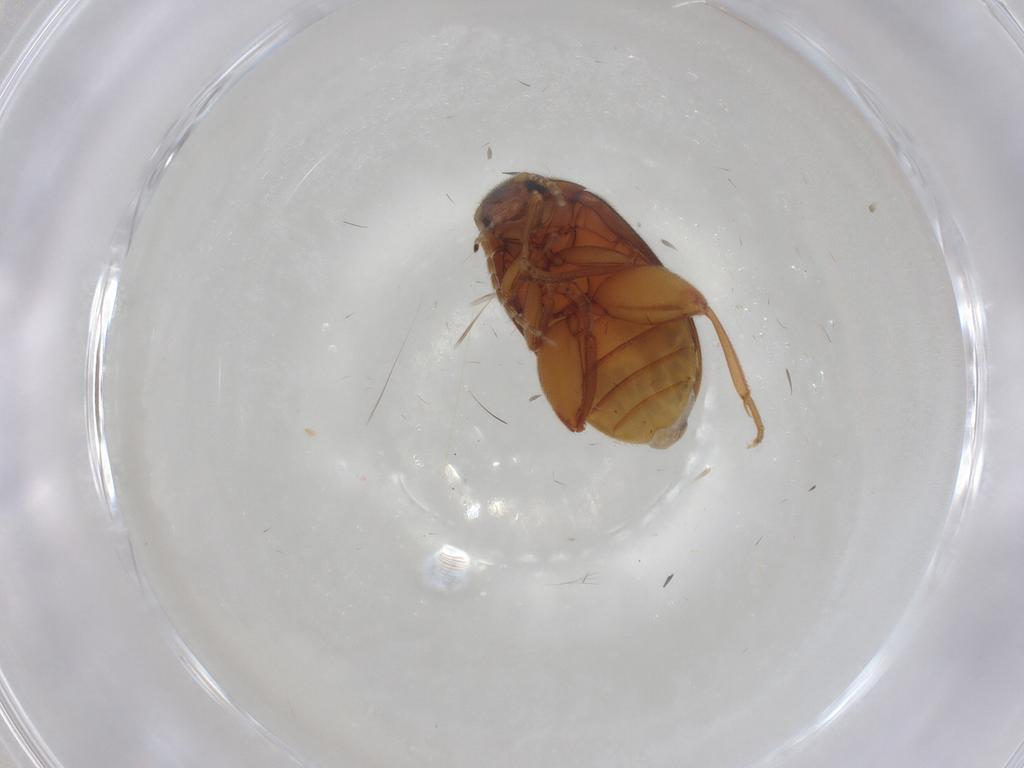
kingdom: Animalia
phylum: Arthropoda
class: Insecta
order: Coleoptera
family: Scirtidae
